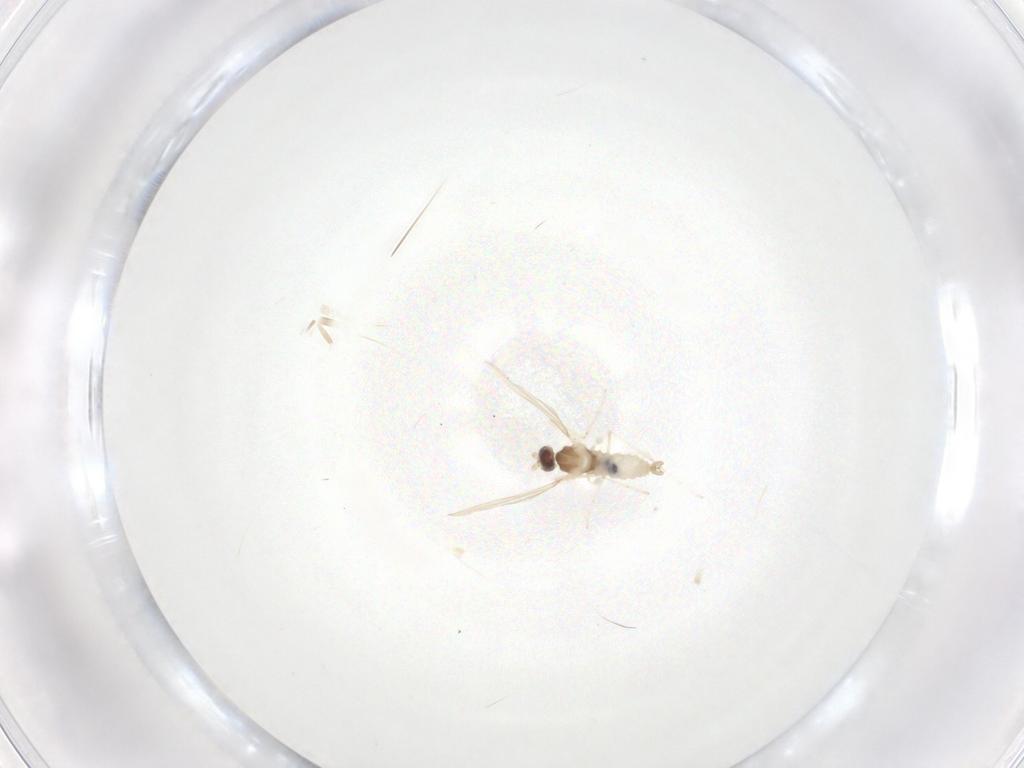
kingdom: Animalia
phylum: Arthropoda
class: Insecta
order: Diptera
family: Cecidomyiidae
